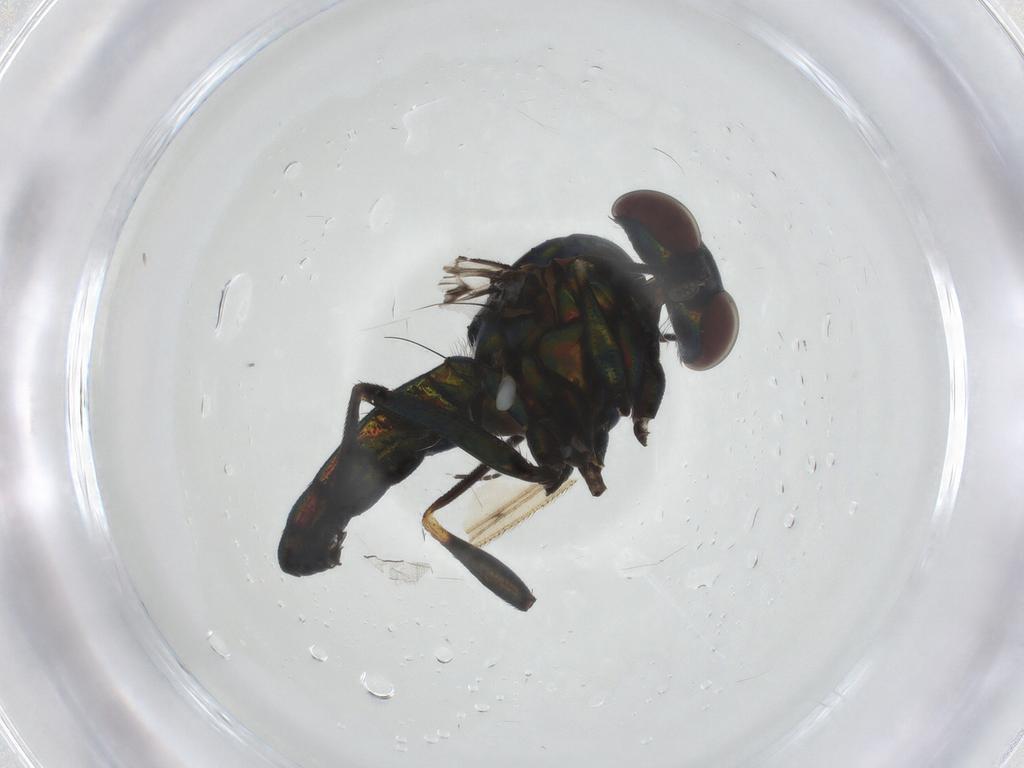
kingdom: Animalia
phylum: Arthropoda
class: Insecta
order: Diptera
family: Dolichopodidae
